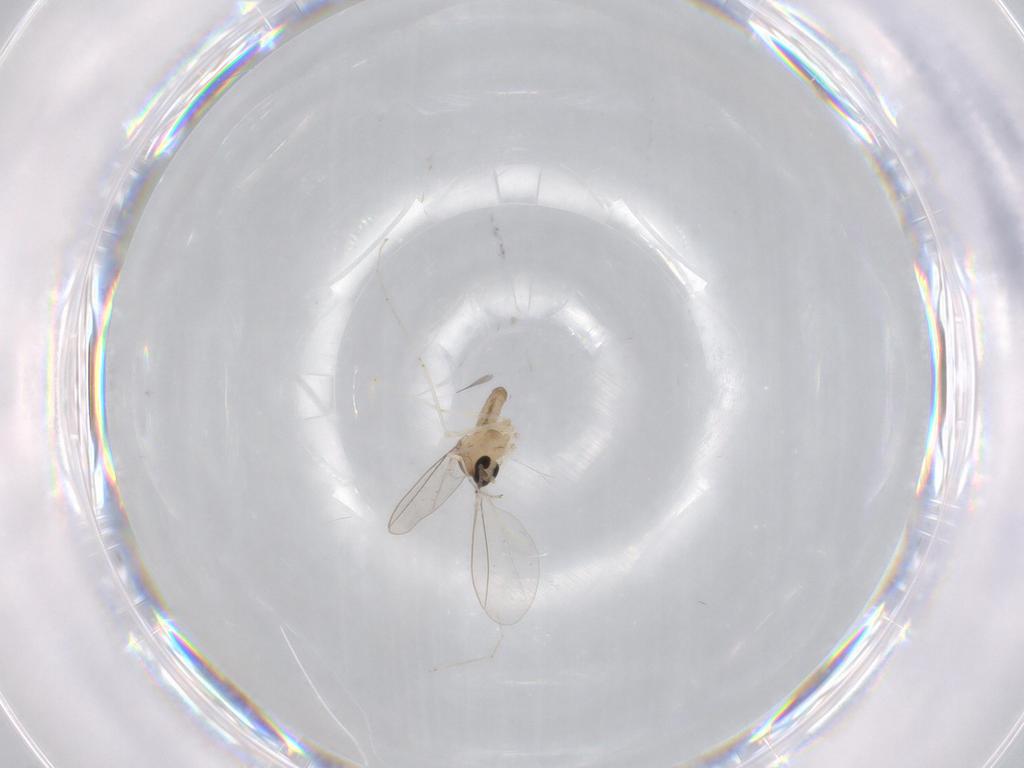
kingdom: Animalia
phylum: Arthropoda
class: Insecta
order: Diptera
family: Cecidomyiidae
